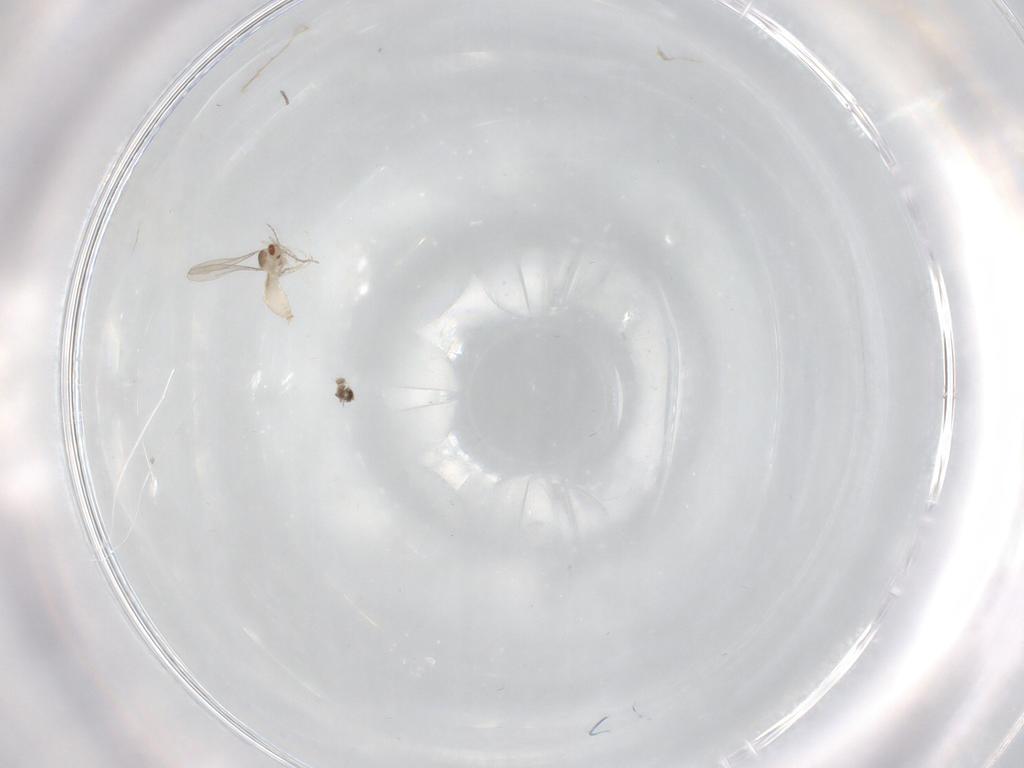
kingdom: Animalia
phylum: Arthropoda
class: Insecta
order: Diptera
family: Cecidomyiidae
